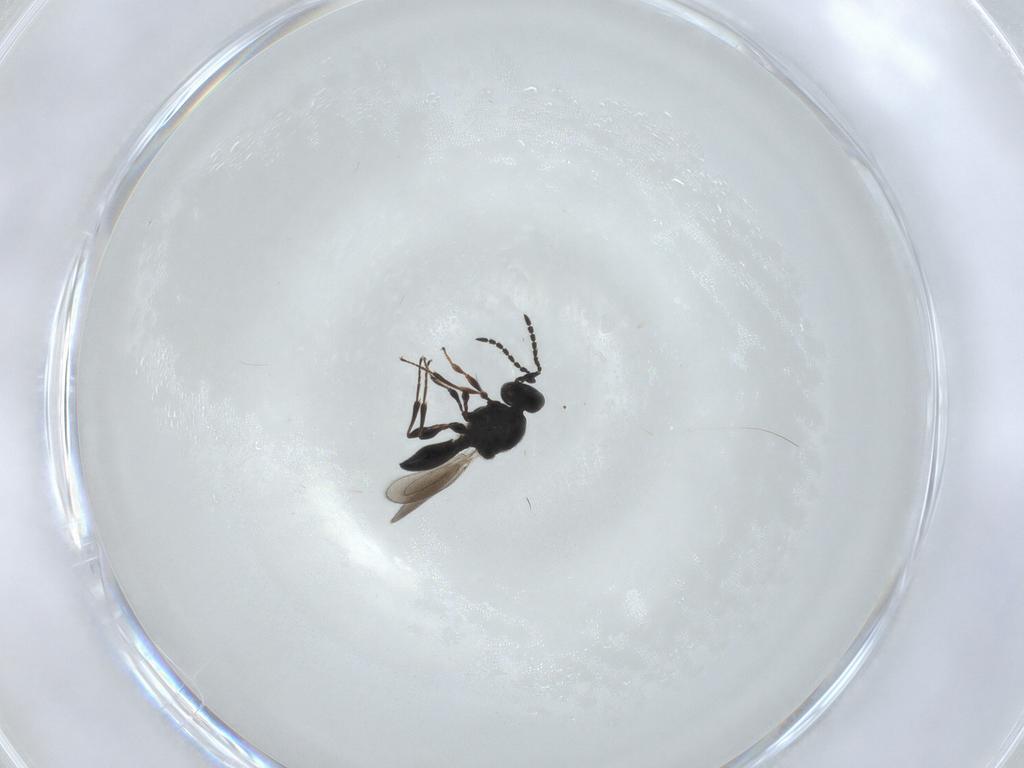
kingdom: Animalia
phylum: Arthropoda
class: Insecta
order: Hymenoptera
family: Platygastridae
